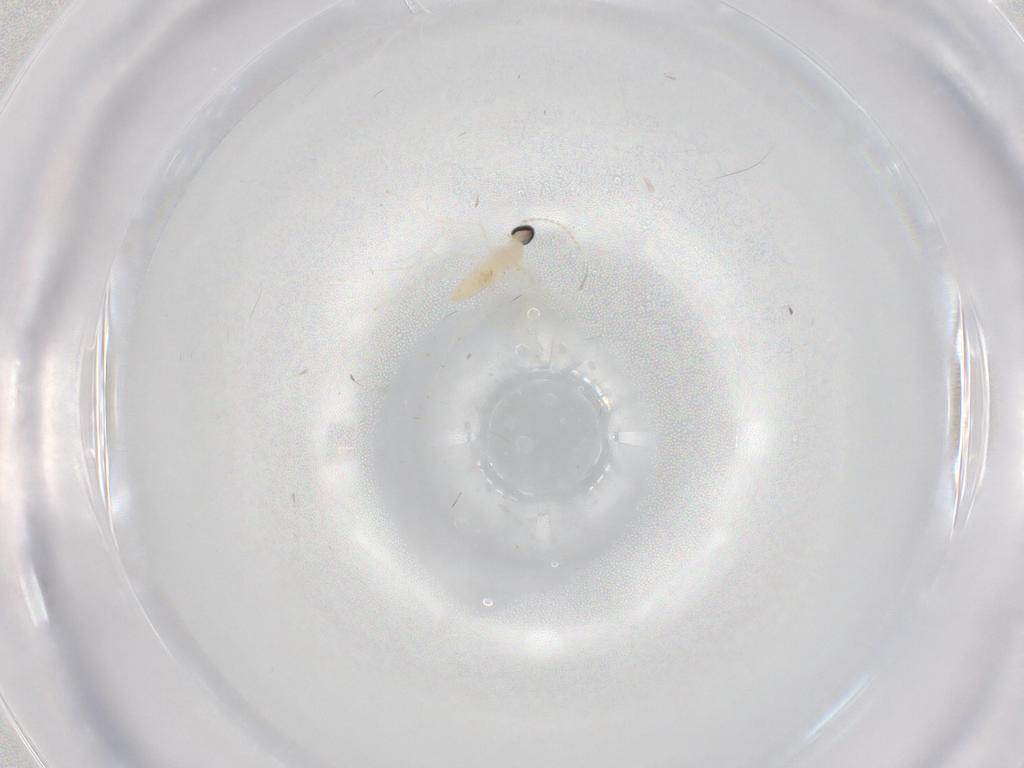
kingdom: Animalia
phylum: Arthropoda
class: Insecta
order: Diptera
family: Cecidomyiidae
